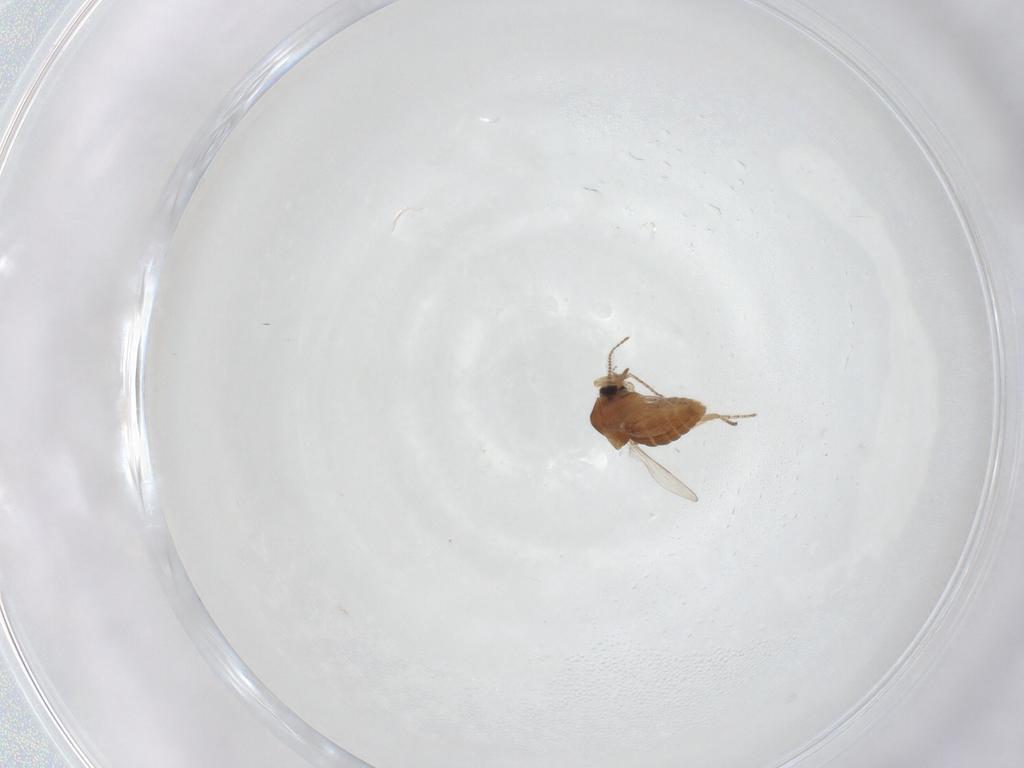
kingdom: Animalia
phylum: Arthropoda
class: Insecta
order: Diptera
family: Ceratopogonidae
